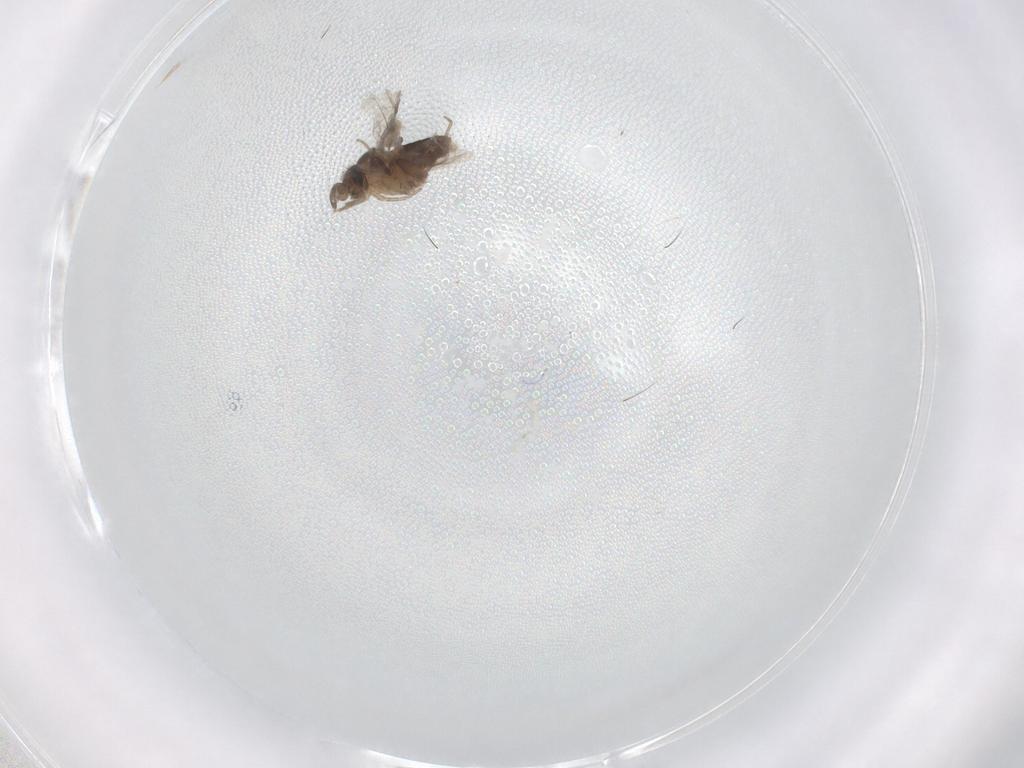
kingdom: Animalia
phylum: Arthropoda
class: Insecta
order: Diptera
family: Phoridae
